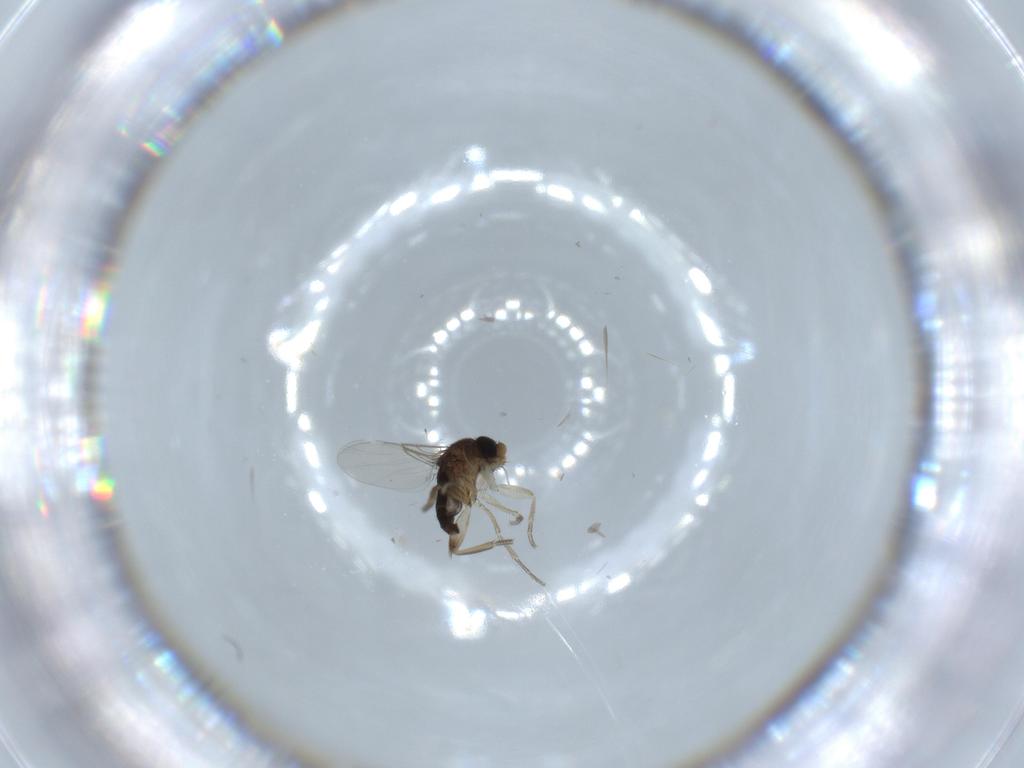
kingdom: Animalia
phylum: Arthropoda
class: Insecta
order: Diptera
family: Phoridae
